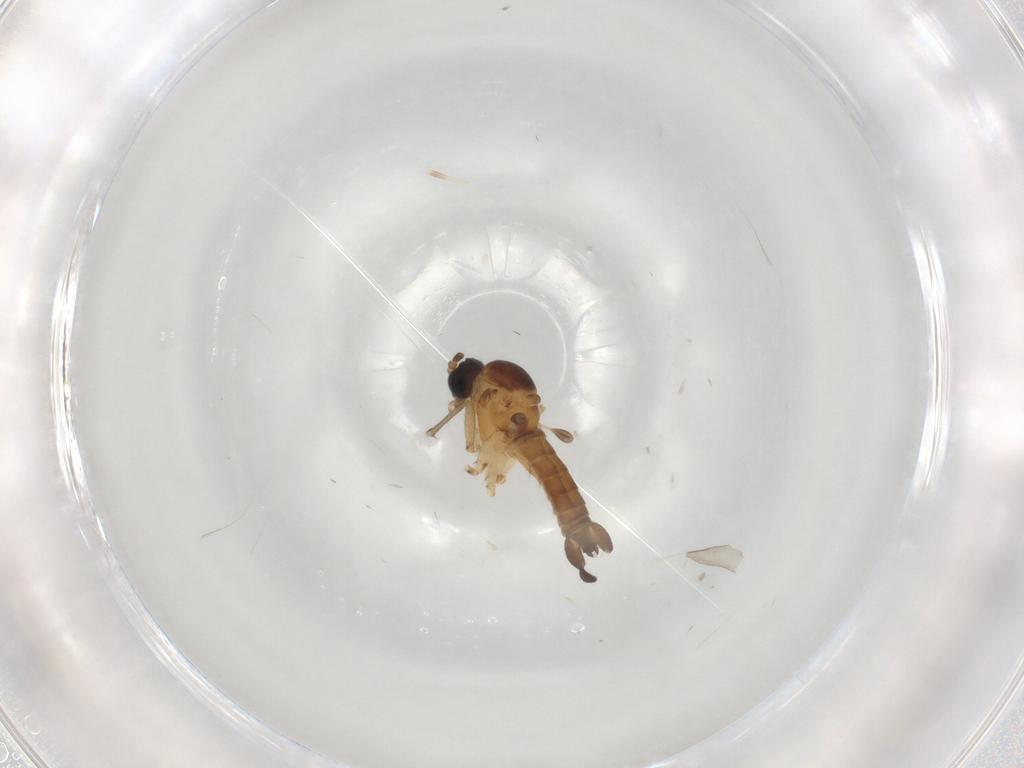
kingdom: Animalia
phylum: Arthropoda
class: Insecta
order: Diptera
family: Sciaridae
